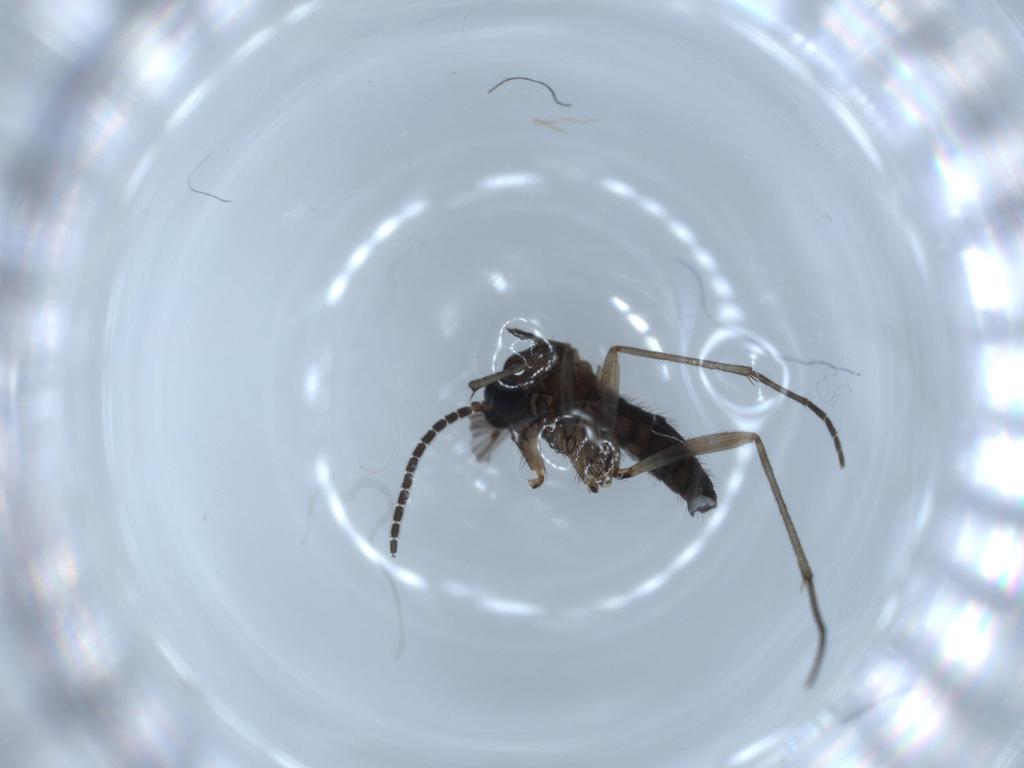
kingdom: Animalia
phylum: Arthropoda
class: Insecta
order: Diptera
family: Sciaridae
